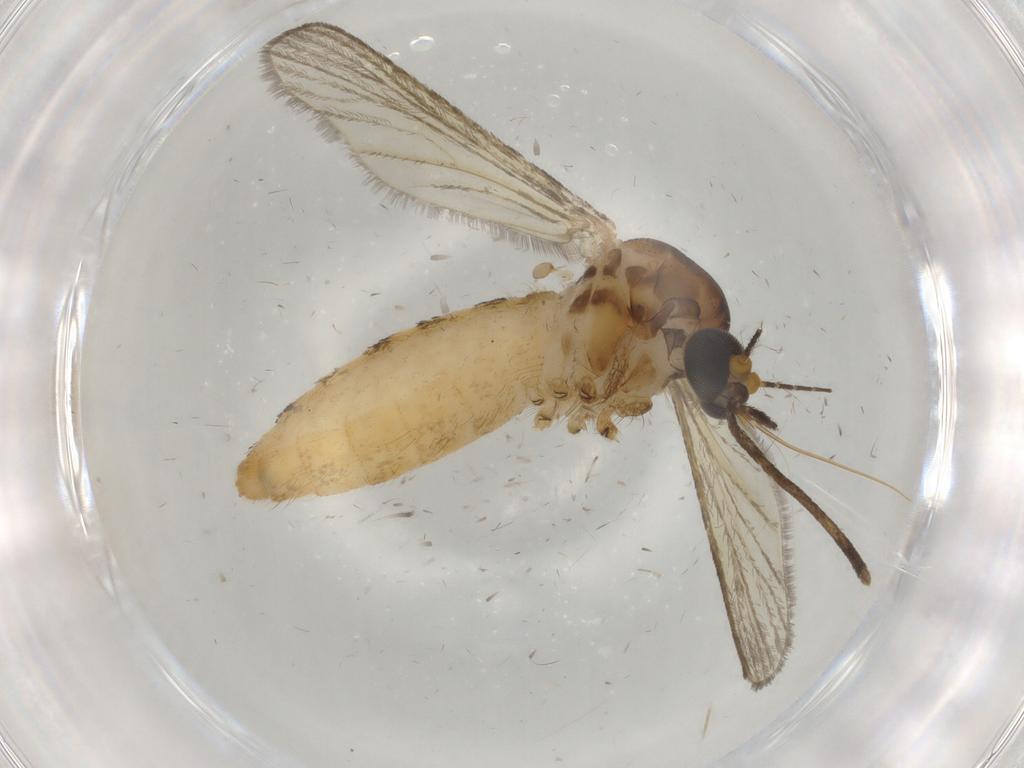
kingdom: Animalia
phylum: Arthropoda
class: Insecta
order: Diptera
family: Culicidae
